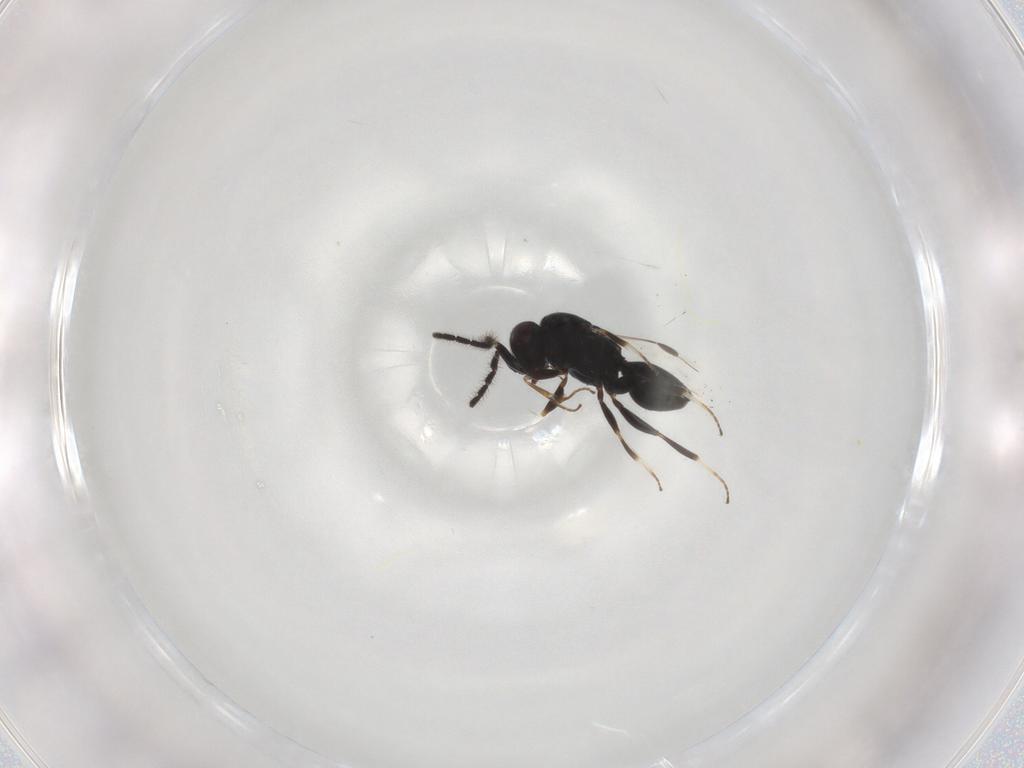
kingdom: Animalia
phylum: Arthropoda
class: Insecta
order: Hymenoptera
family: Megaspilidae
